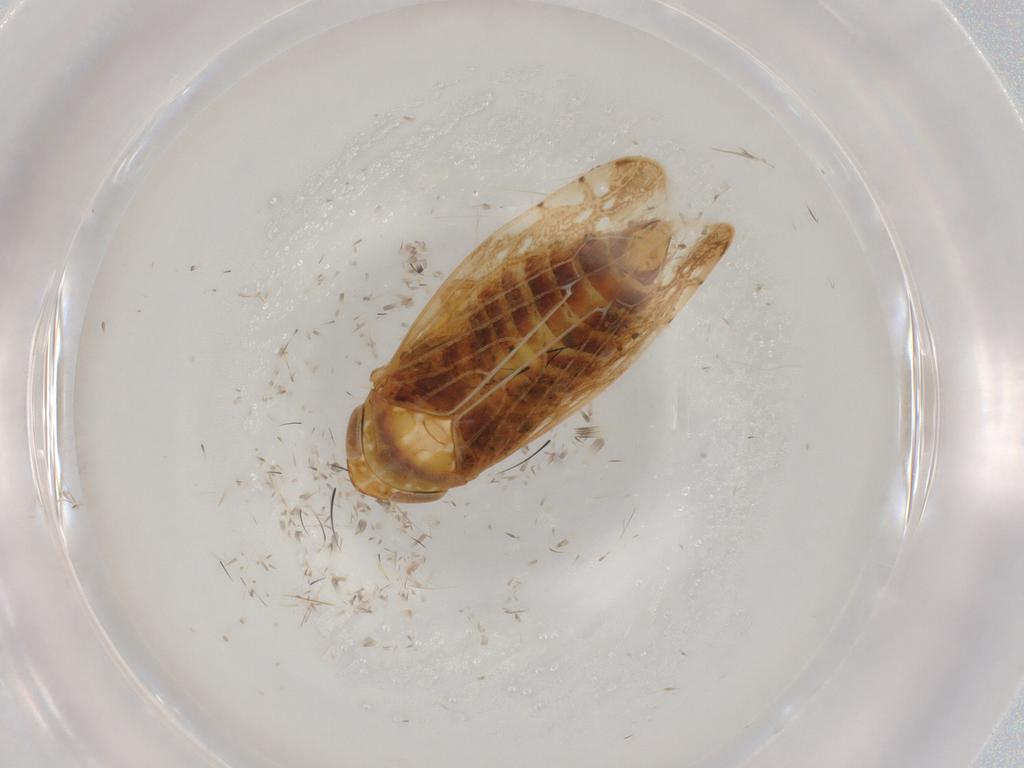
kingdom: Animalia
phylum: Arthropoda
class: Insecta
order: Hemiptera
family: Cicadellidae
